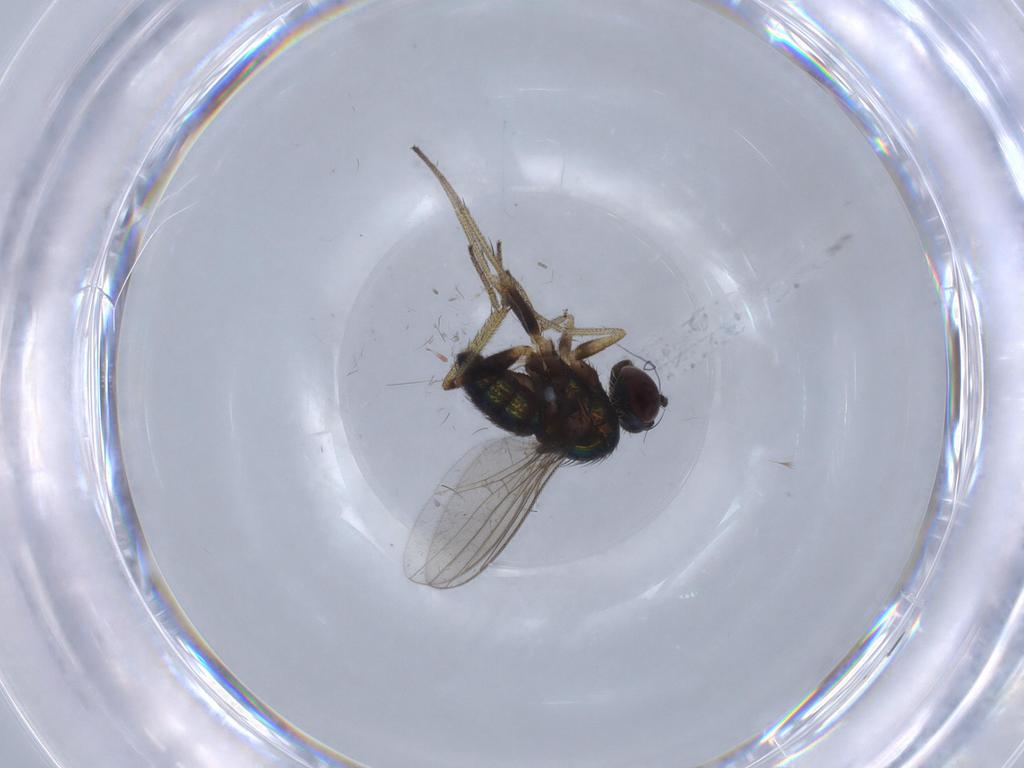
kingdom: Animalia
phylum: Arthropoda
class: Insecta
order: Diptera
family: Dolichopodidae
